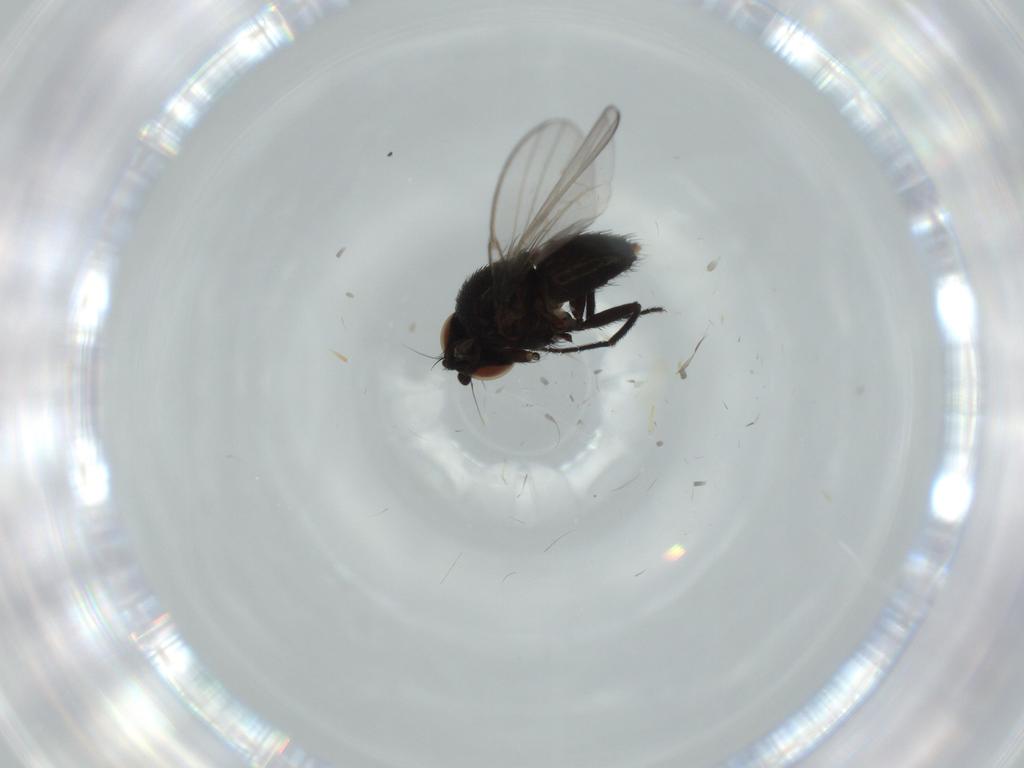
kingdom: Animalia
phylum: Arthropoda
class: Insecta
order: Diptera
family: Milichiidae
